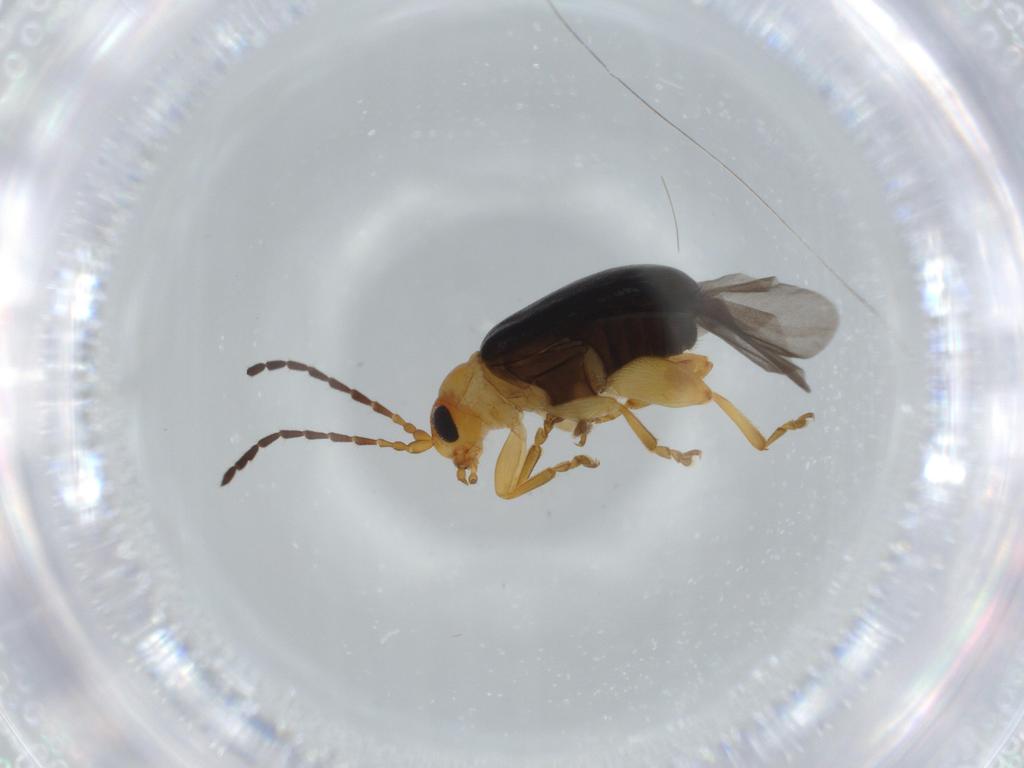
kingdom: Animalia
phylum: Arthropoda
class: Insecta
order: Coleoptera
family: Chrysomelidae
